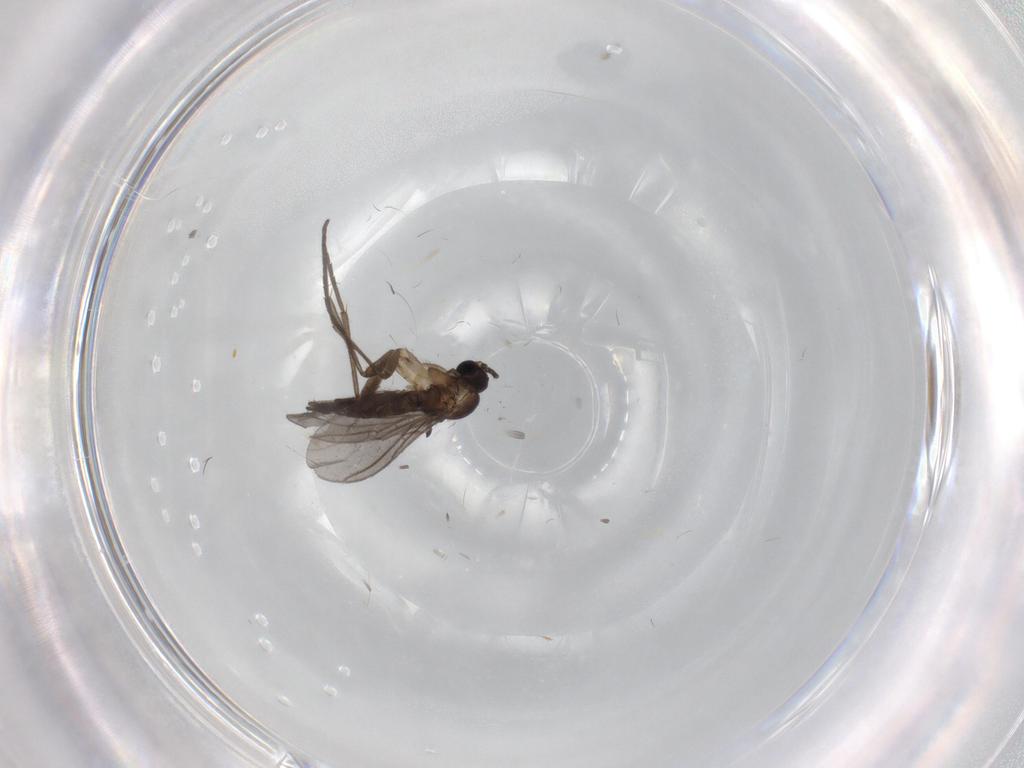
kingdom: Animalia
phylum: Arthropoda
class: Insecta
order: Diptera
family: Sciaridae
